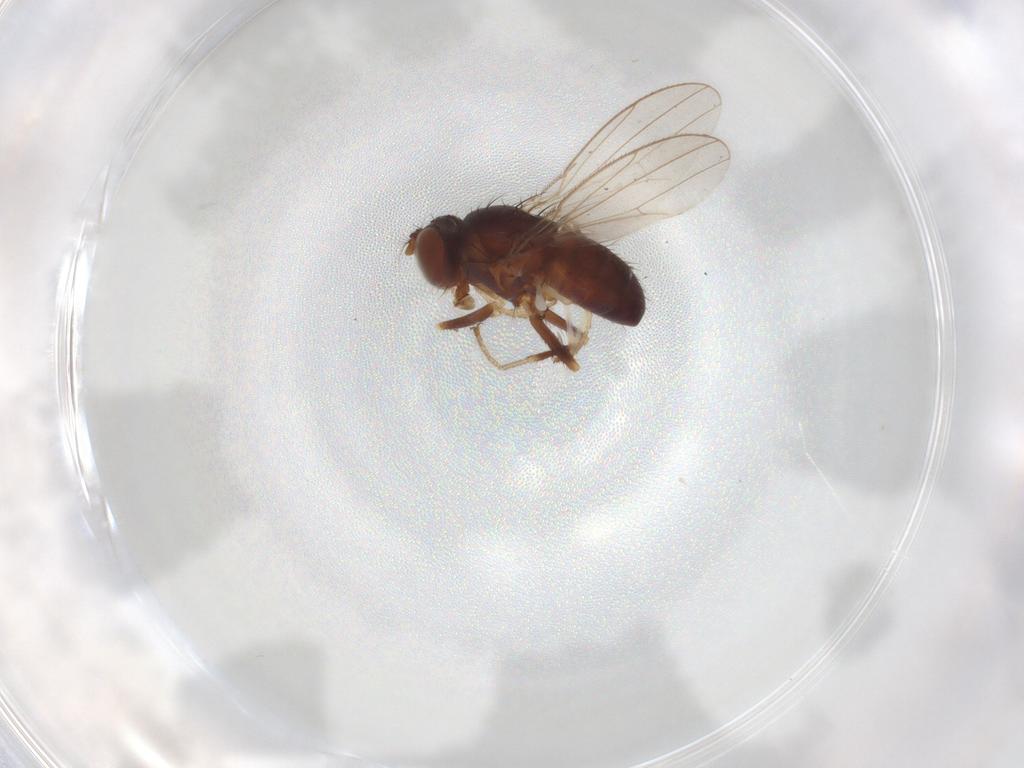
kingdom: Animalia
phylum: Arthropoda
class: Insecta
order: Diptera
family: Ephydridae
